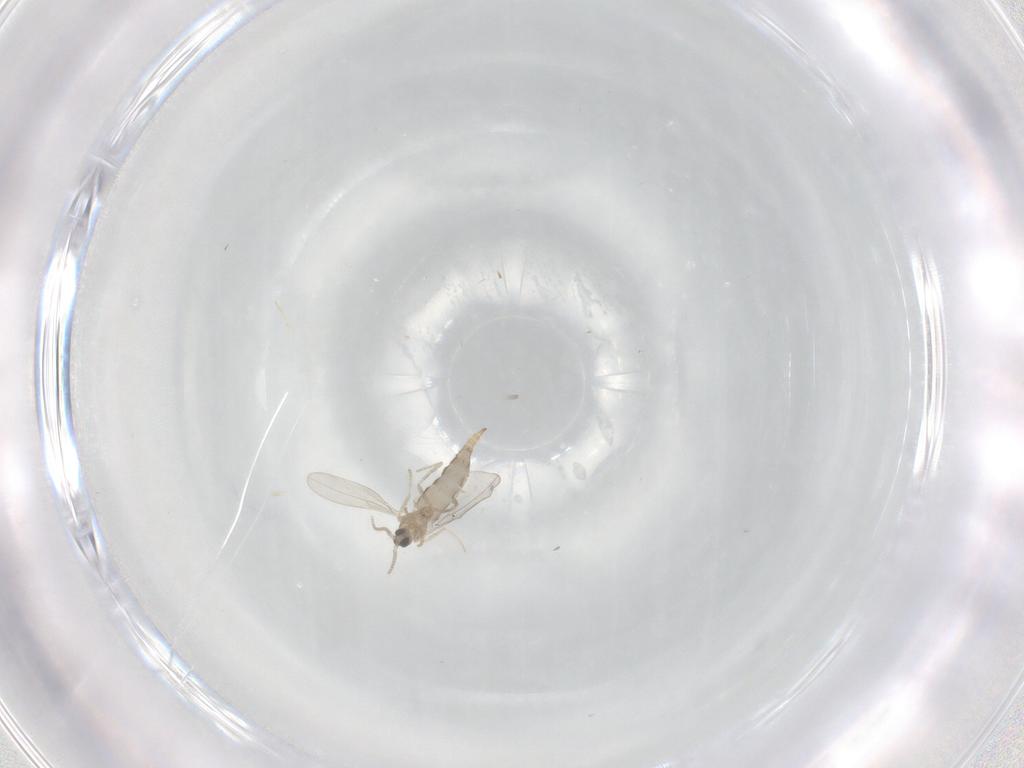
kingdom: Animalia
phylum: Arthropoda
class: Insecta
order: Diptera
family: Cecidomyiidae
